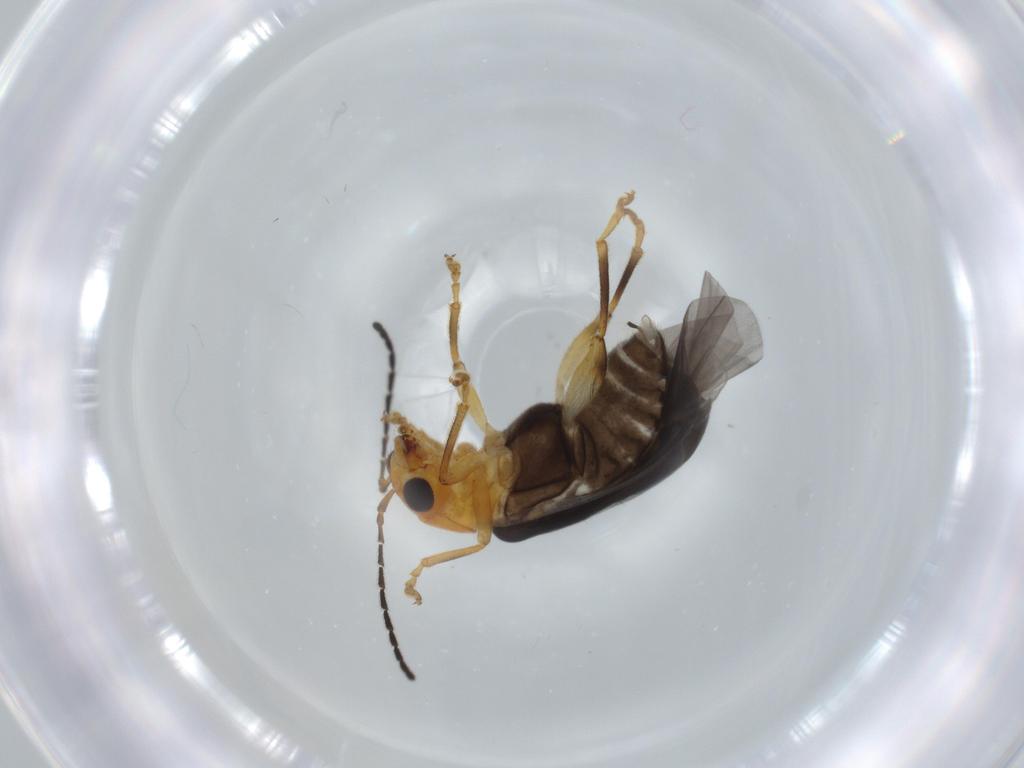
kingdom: Animalia
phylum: Arthropoda
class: Insecta
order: Coleoptera
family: Chrysomelidae
